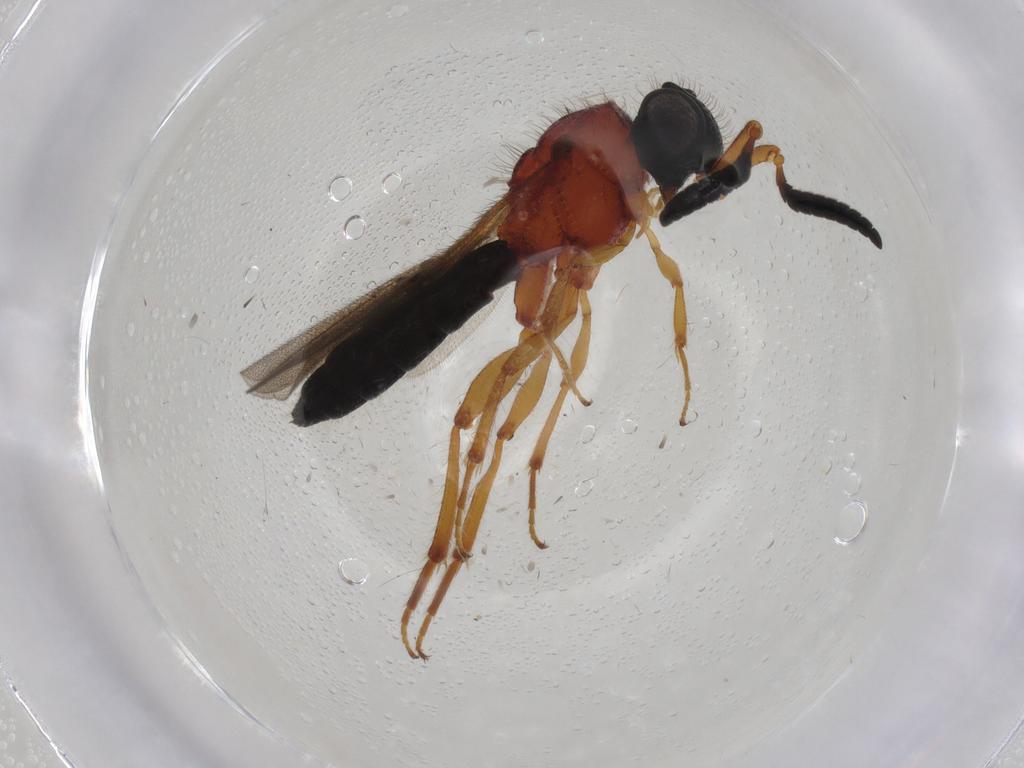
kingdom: Animalia
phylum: Arthropoda
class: Insecta
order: Hymenoptera
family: Scelionidae
